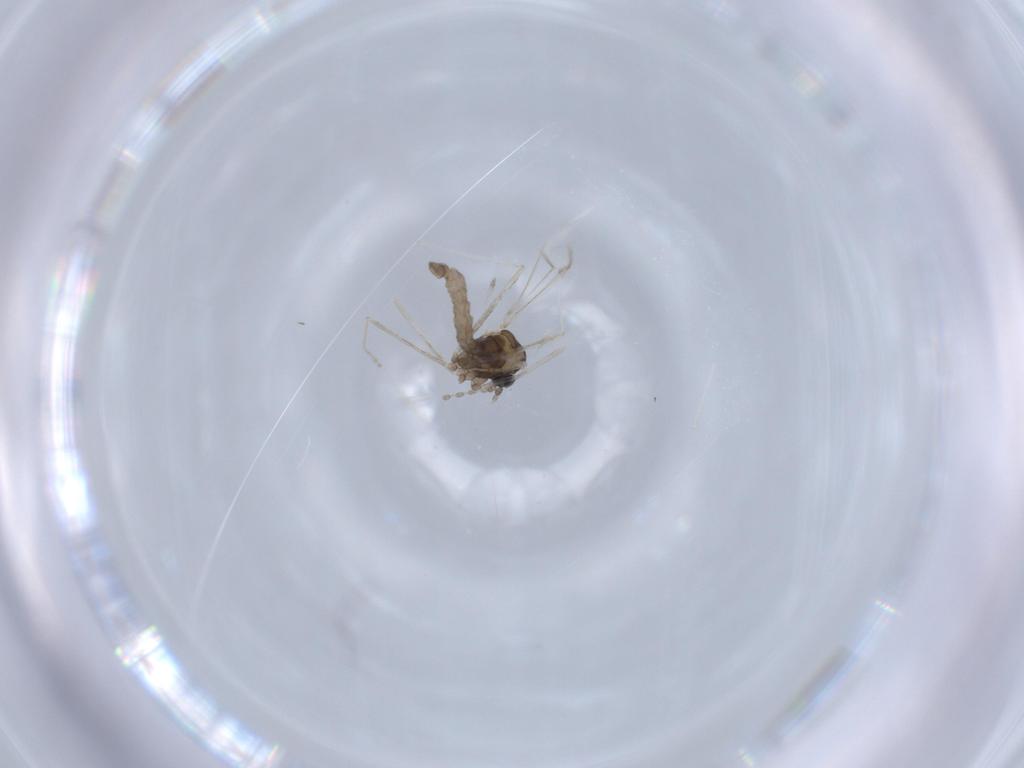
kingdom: Animalia
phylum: Arthropoda
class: Insecta
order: Diptera
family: Cecidomyiidae
